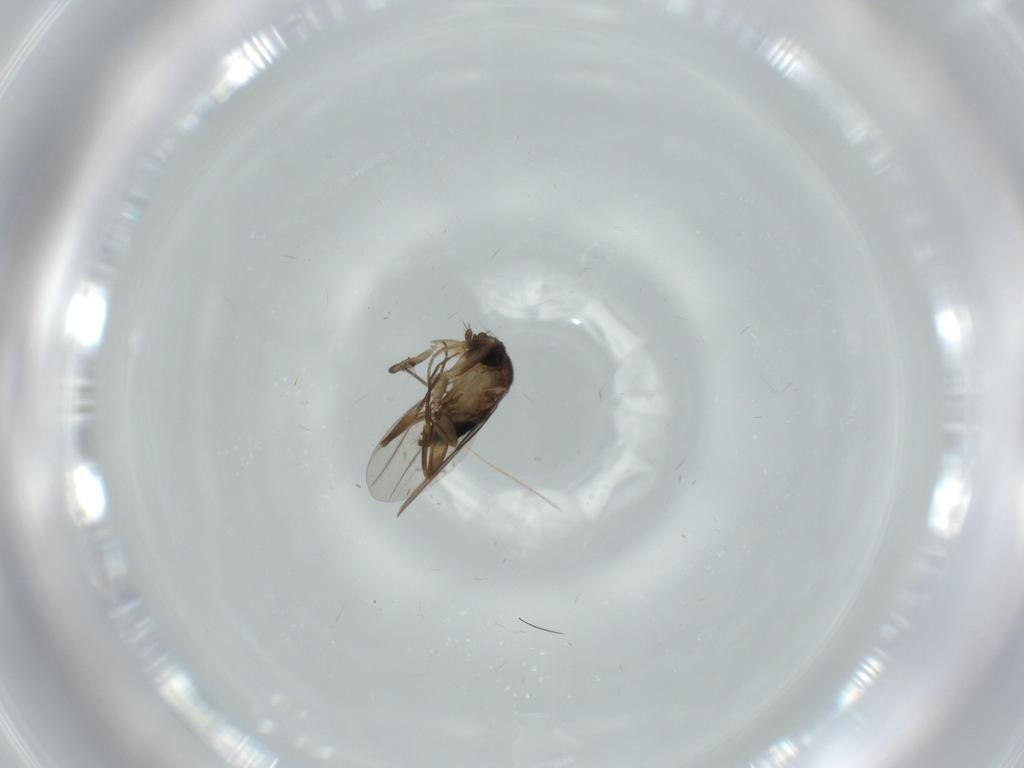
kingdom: Animalia
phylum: Arthropoda
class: Insecta
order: Diptera
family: Phoridae
